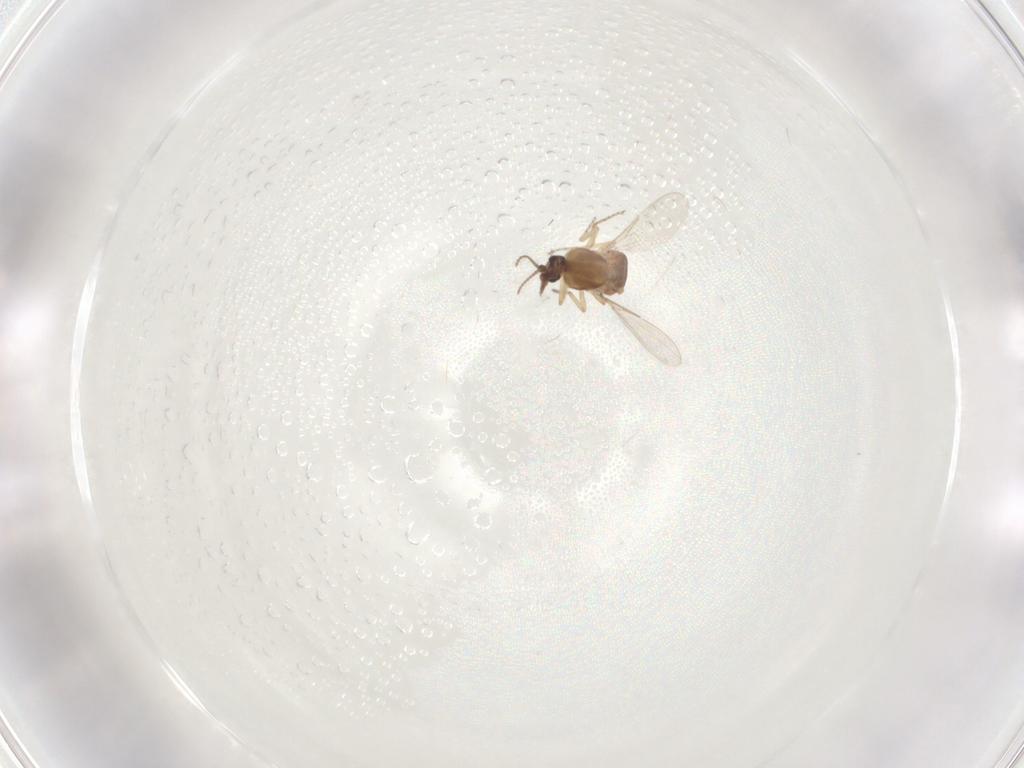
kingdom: Animalia
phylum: Arthropoda
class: Insecta
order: Diptera
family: Ceratopogonidae
